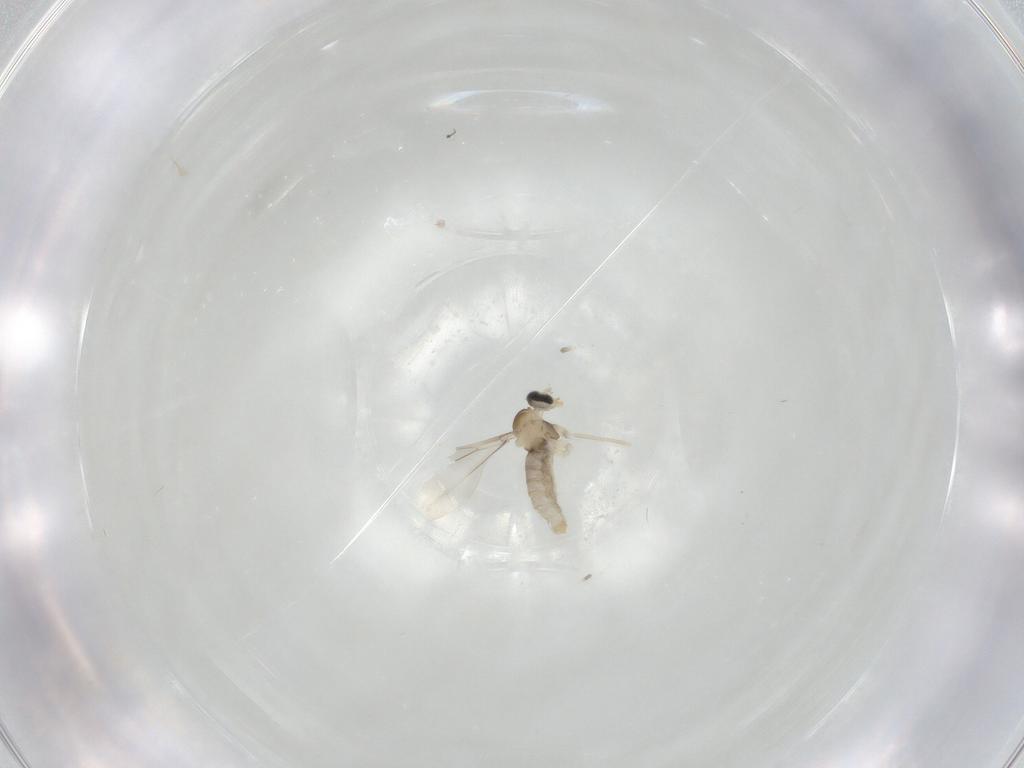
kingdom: Animalia
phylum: Arthropoda
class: Insecta
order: Diptera
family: Cecidomyiidae
